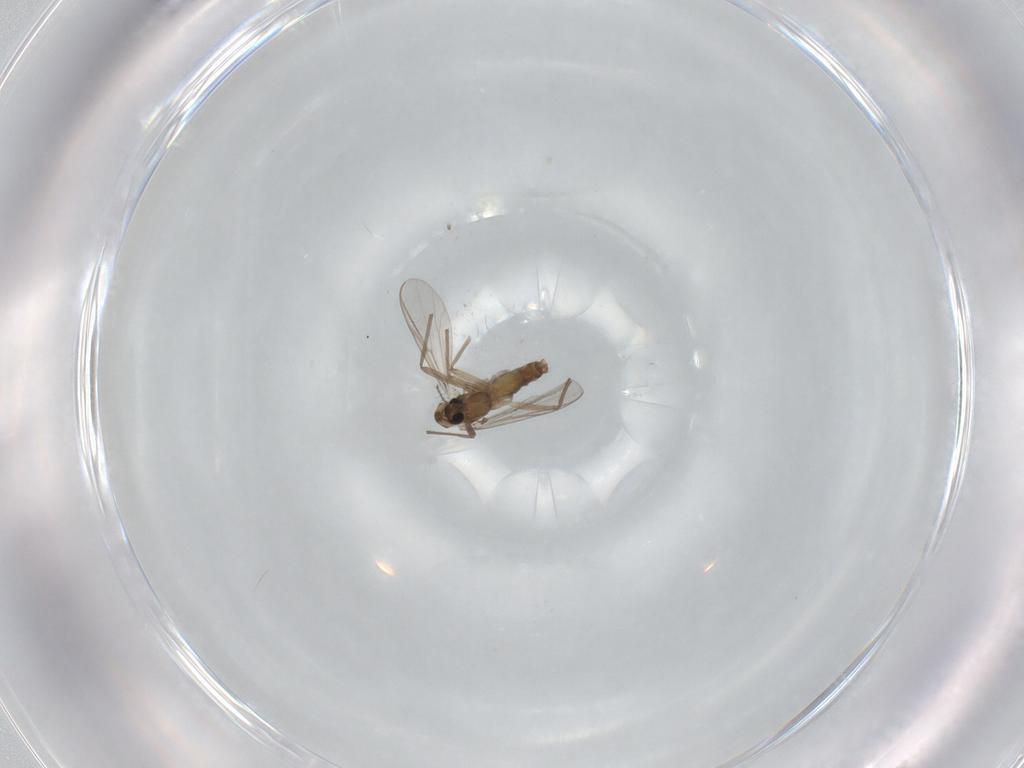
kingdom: Animalia
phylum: Arthropoda
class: Insecta
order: Diptera
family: Chironomidae
